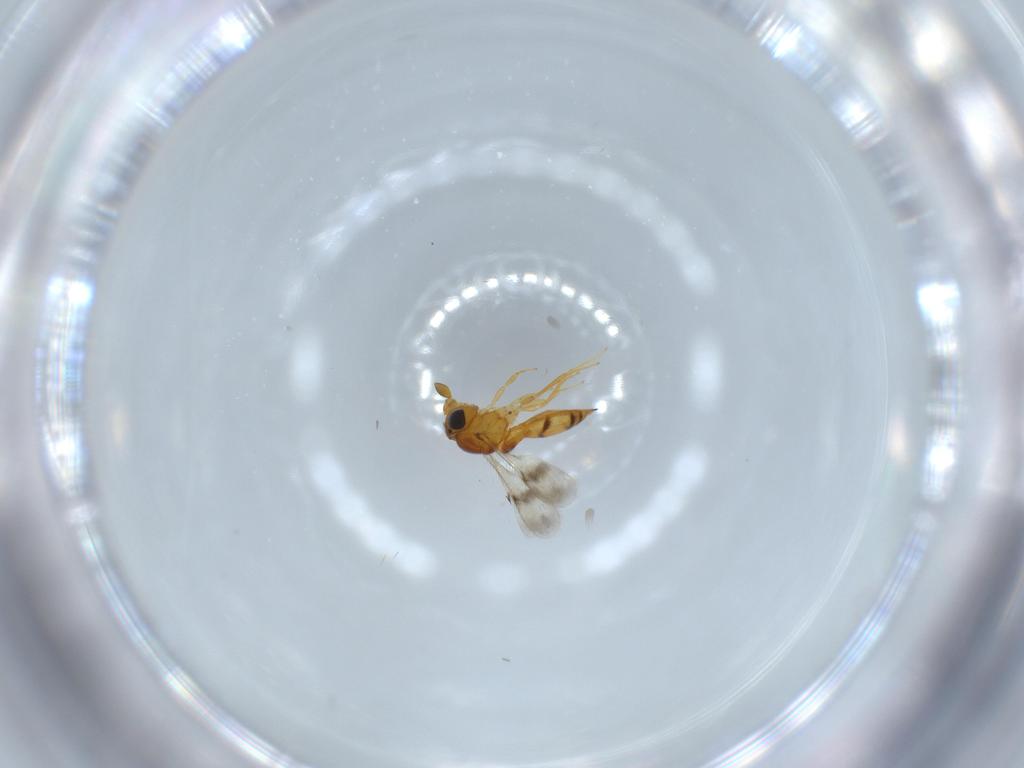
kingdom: Animalia
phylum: Arthropoda
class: Insecta
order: Hymenoptera
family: Scelionidae
